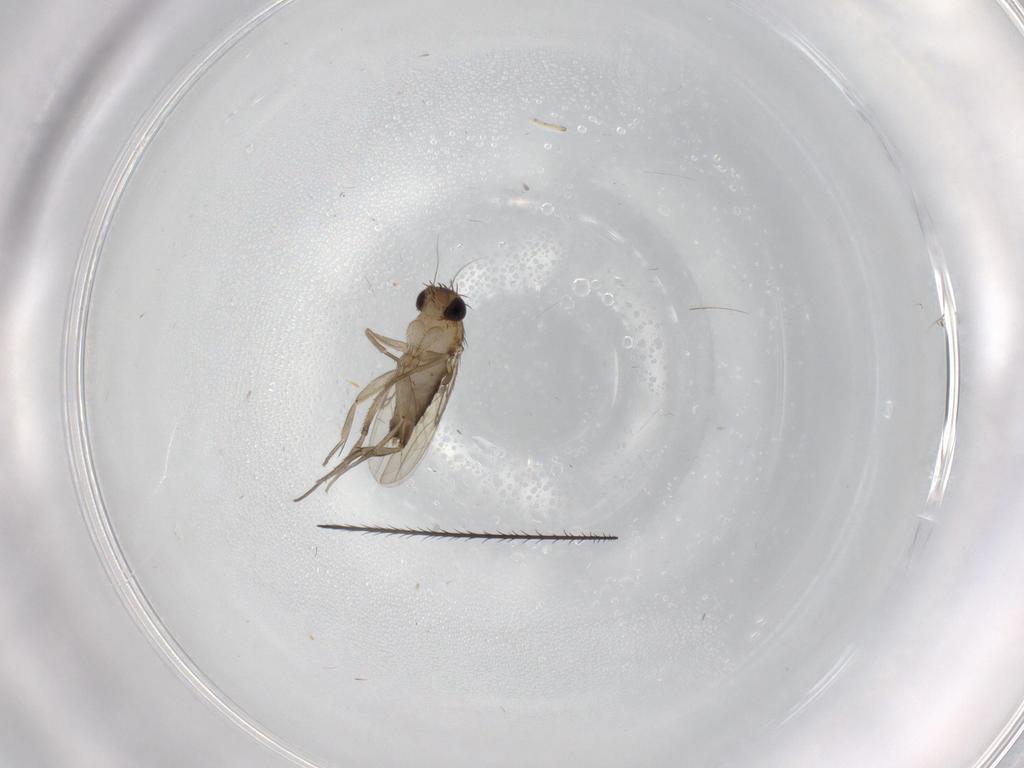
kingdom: Animalia
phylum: Arthropoda
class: Insecta
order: Diptera
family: Phoridae
